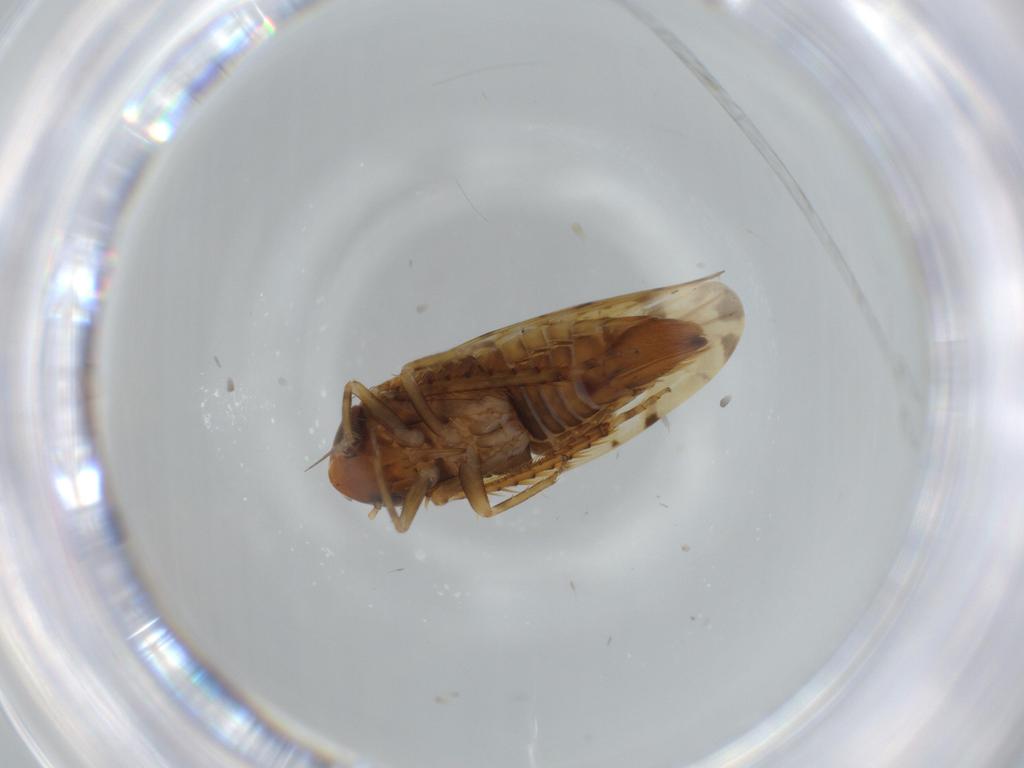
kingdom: Animalia
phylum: Arthropoda
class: Insecta
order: Hemiptera
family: Cicadellidae
